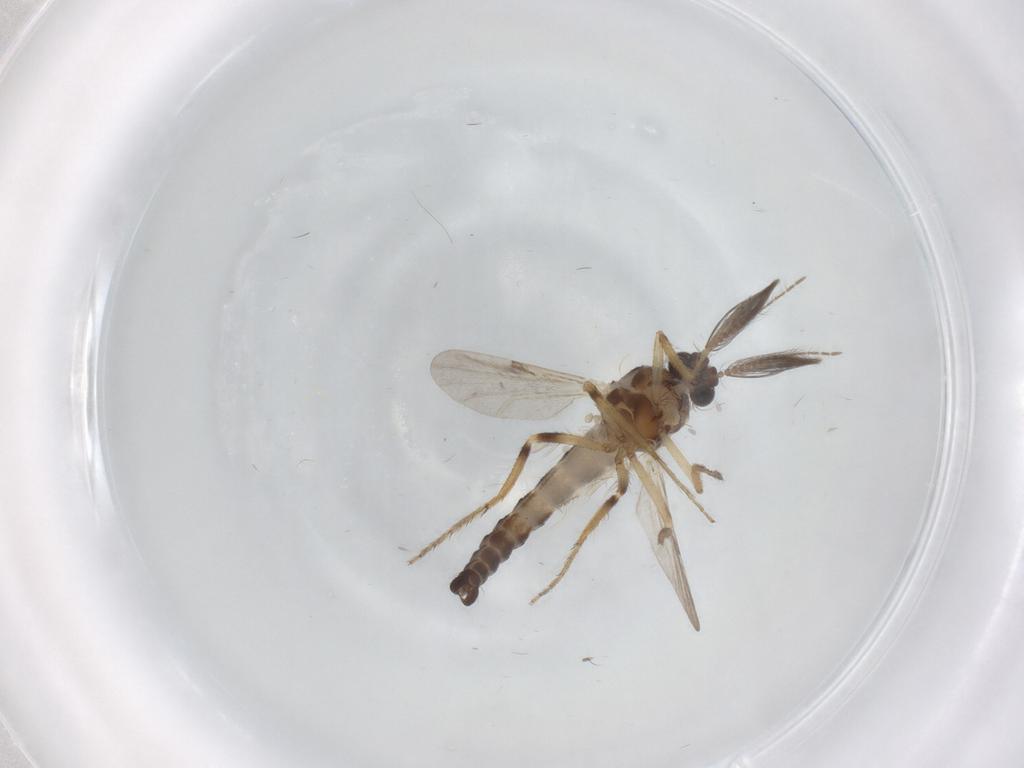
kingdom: Animalia
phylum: Arthropoda
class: Insecta
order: Diptera
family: Ceratopogonidae
